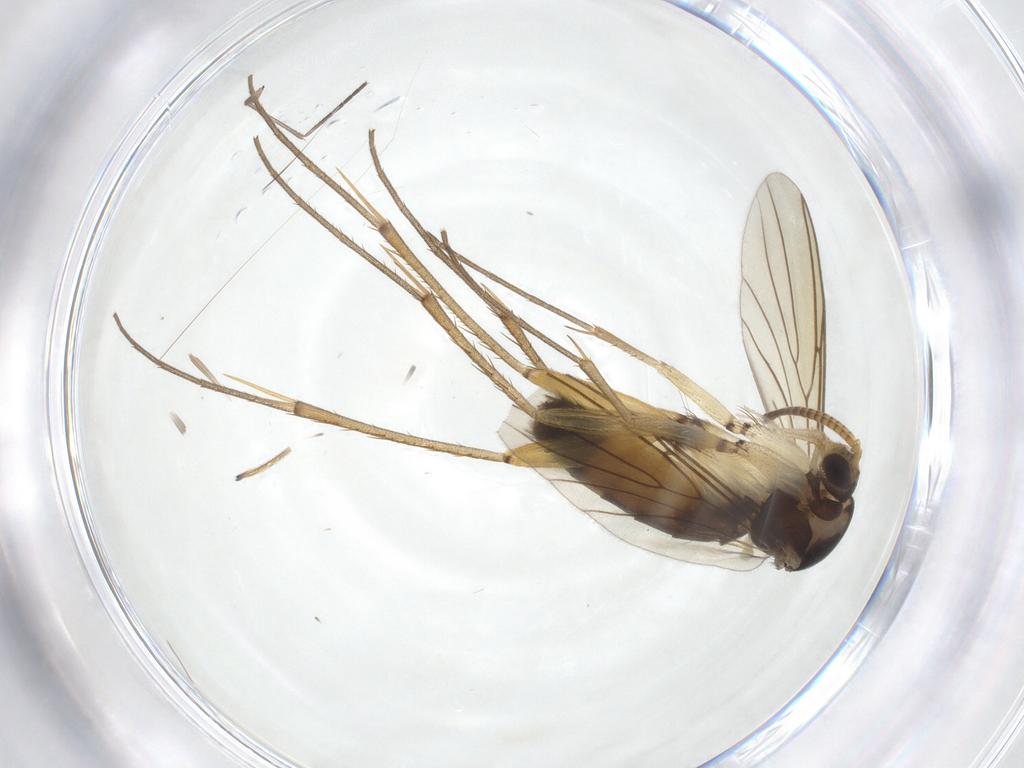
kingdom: Animalia
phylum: Arthropoda
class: Insecta
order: Diptera
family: Mycetophilidae
